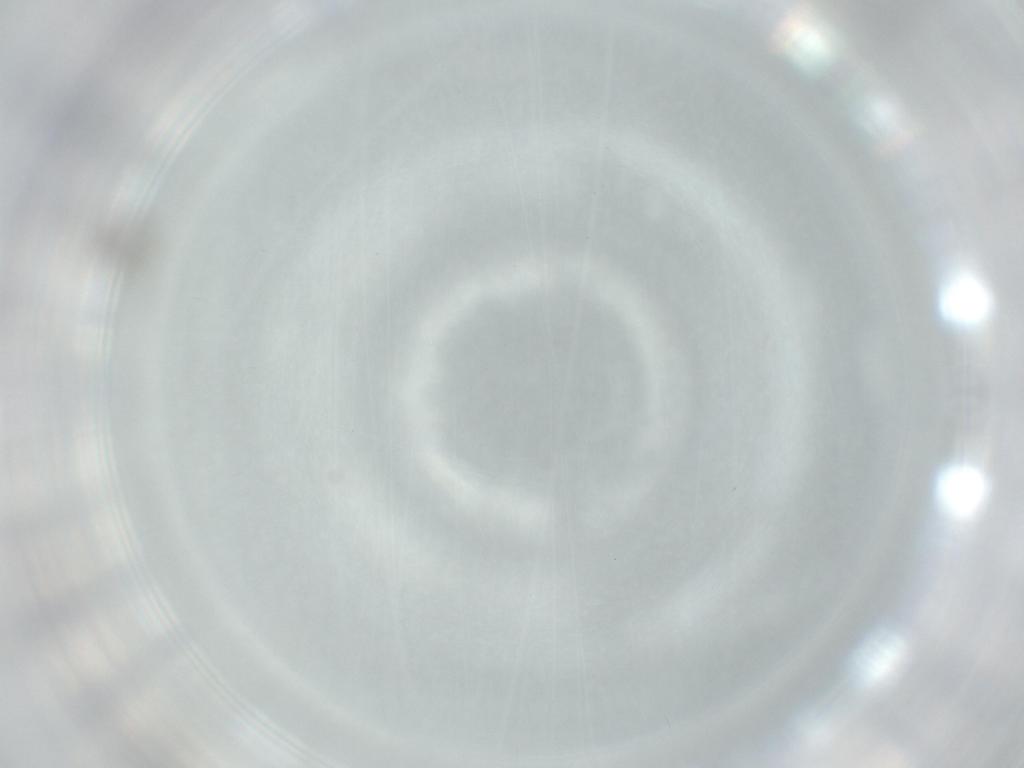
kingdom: Animalia
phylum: Arthropoda
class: Insecta
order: Diptera
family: Cecidomyiidae
